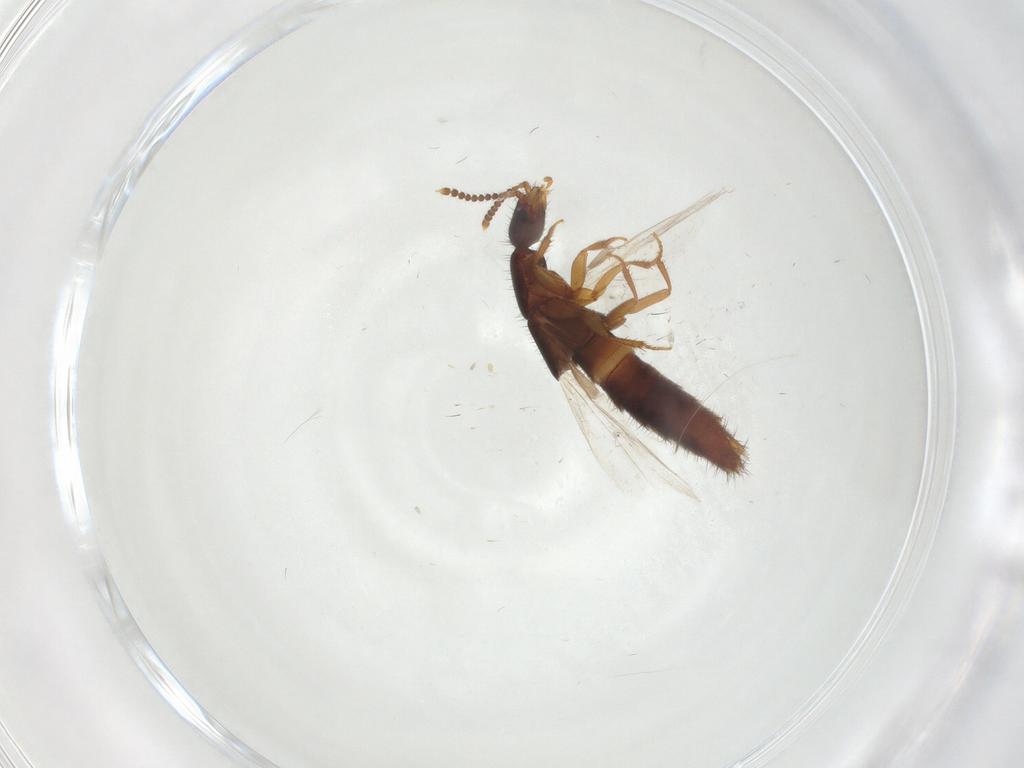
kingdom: Animalia
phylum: Arthropoda
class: Insecta
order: Coleoptera
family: Staphylinidae
